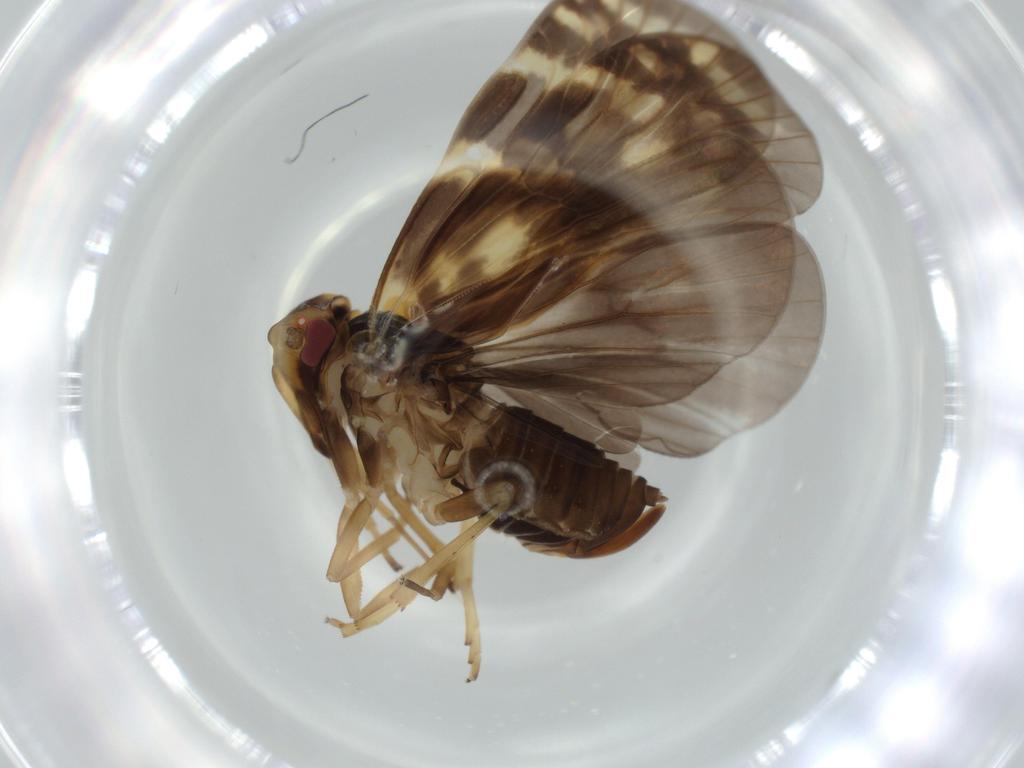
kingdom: Animalia
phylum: Arthropoda
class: Insecta
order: Hemiptera
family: Cixiidae
